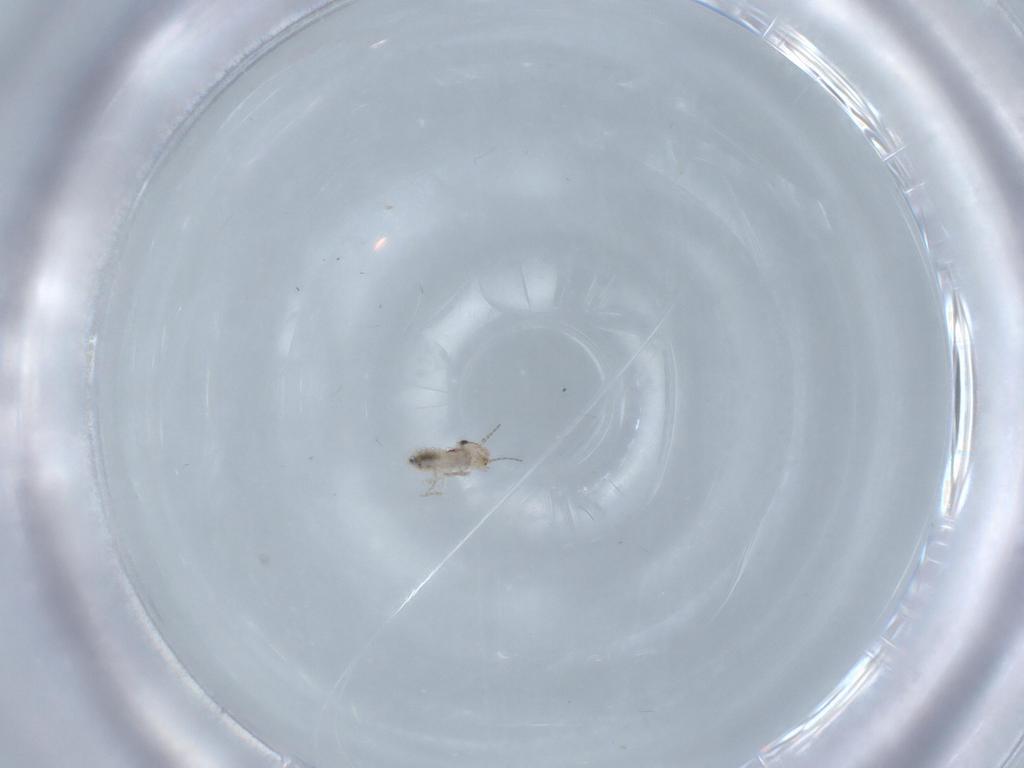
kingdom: Animalia
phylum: Arthropoda
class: Insecta
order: Psocodea
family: Lepidopsocidae
